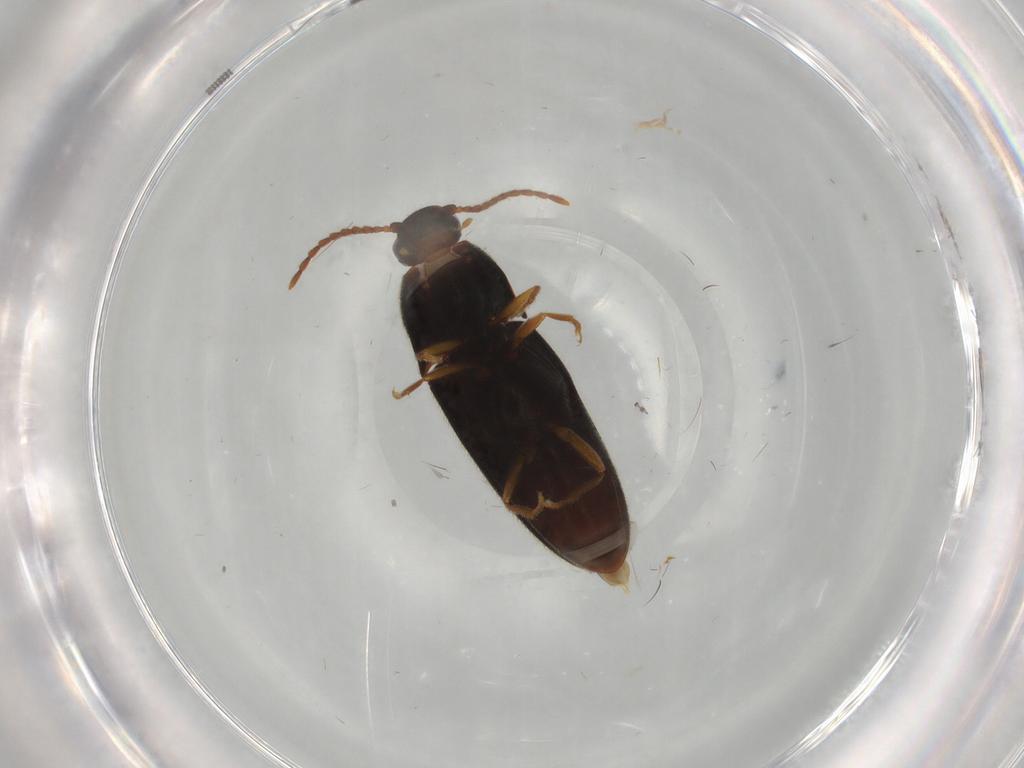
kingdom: Animalia
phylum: Arthropoda
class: Insecta
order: Coleoptera
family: Elateridae
